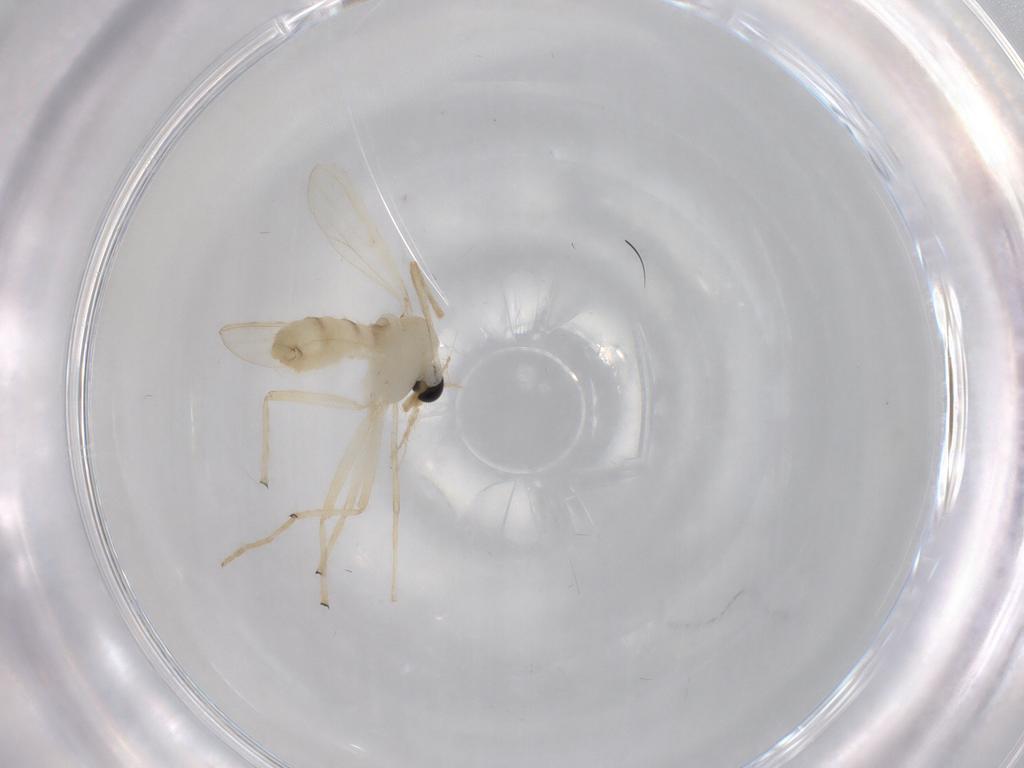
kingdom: Animalia
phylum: Arthropoda
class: Insecta
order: Diptera
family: Chironomidae
